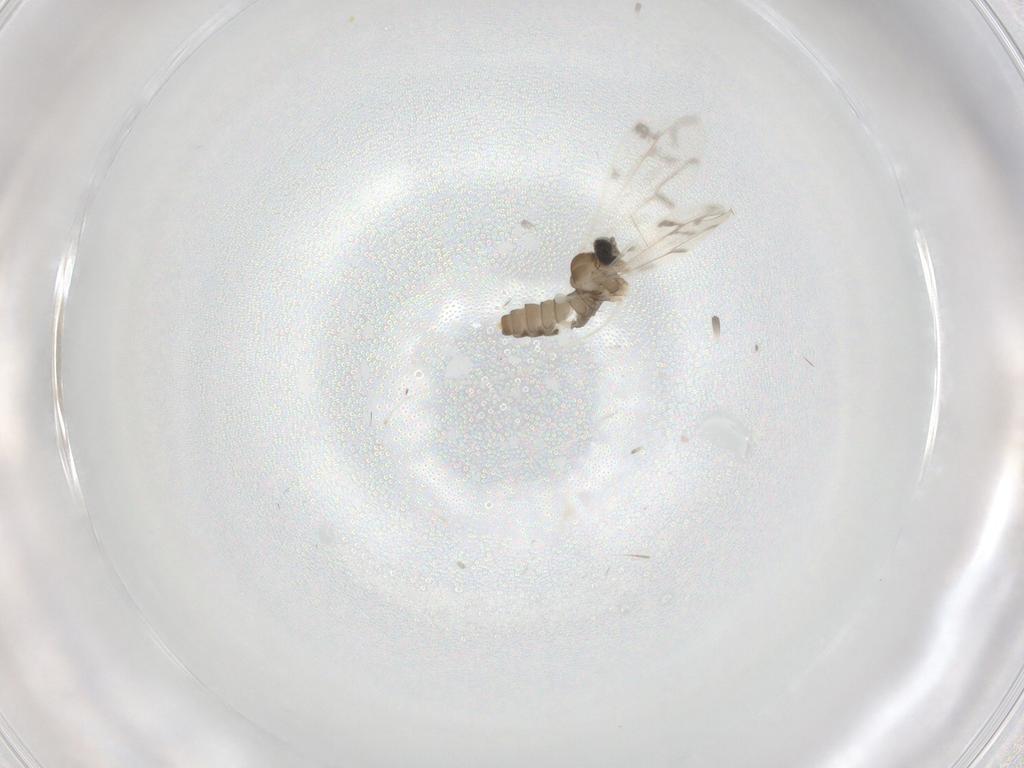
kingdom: Animalia
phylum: Arthropoda
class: Insecta
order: Diptera
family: Cecidomyiidae
